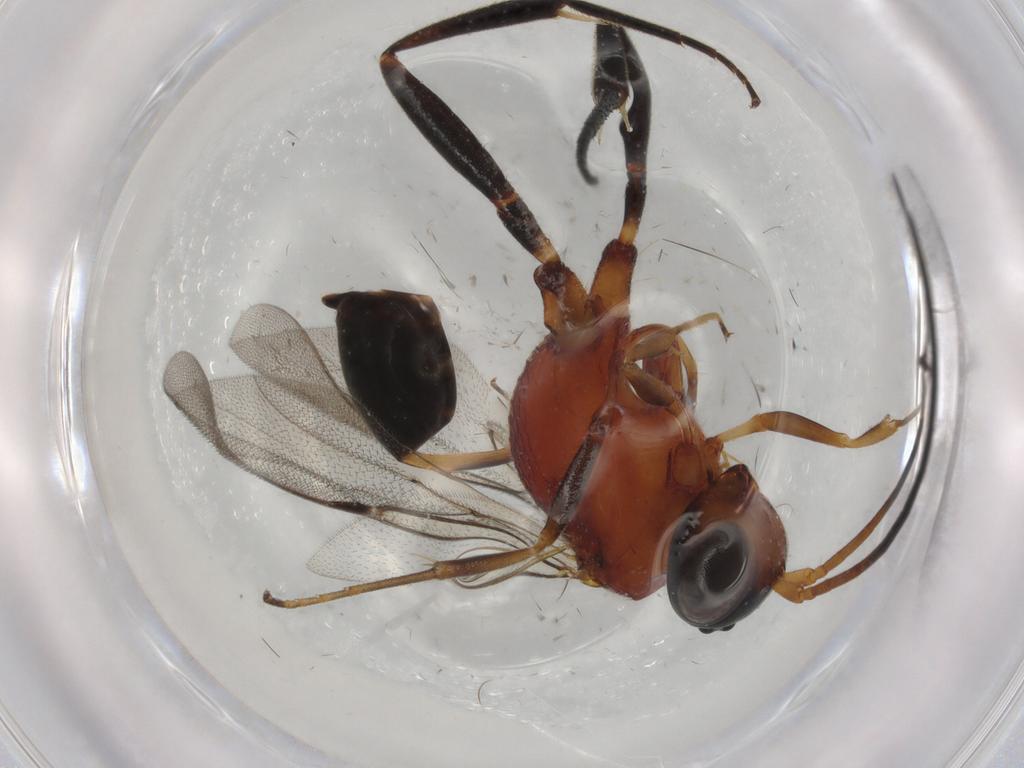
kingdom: Animalia
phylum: Arthropoda
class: Insecta
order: Hymenoptera
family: Evaniidae
